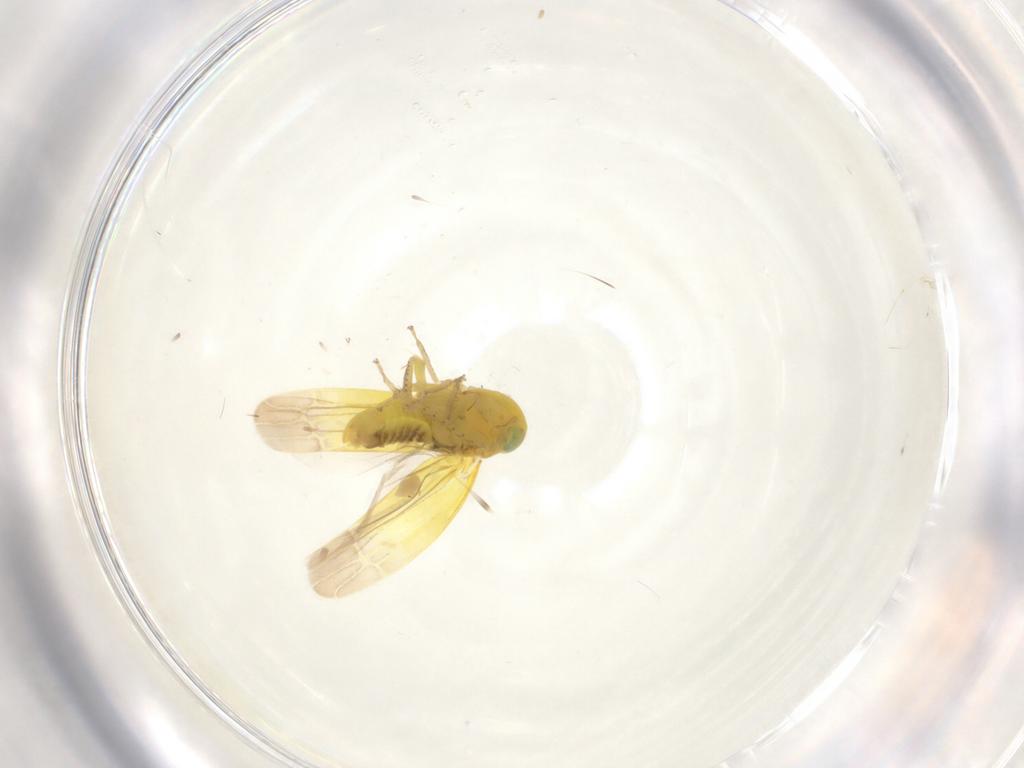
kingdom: Animalia
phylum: Arthropoda
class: Insecta
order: Hemiptera
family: Cicadellidae
